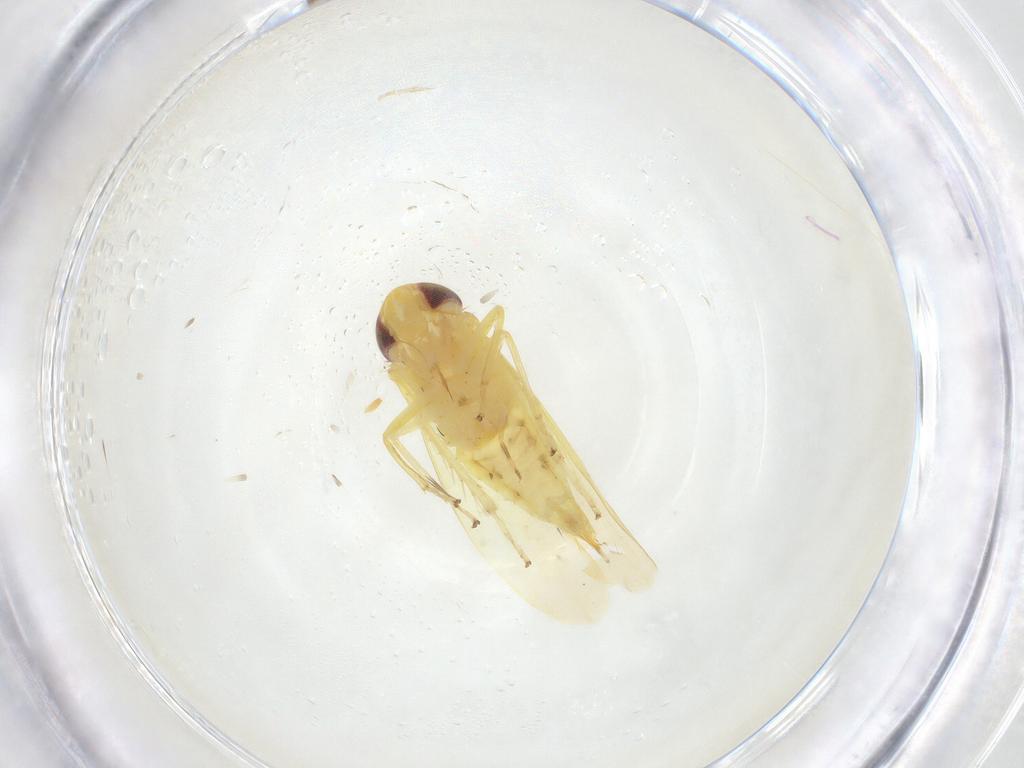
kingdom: Animalia
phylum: Arthropoda
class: Insecta
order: Hemiptera
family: Cicadellidae
